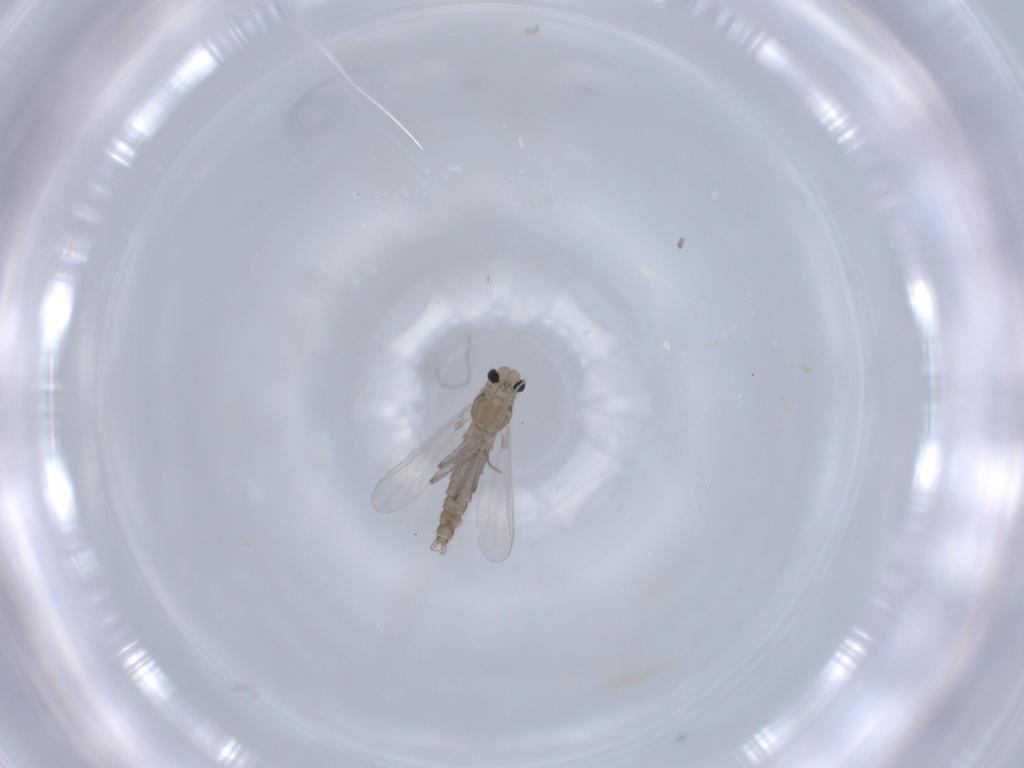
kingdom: Animalia
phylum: Arthropoda
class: Insecta
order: Diptera
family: Chironomidae
